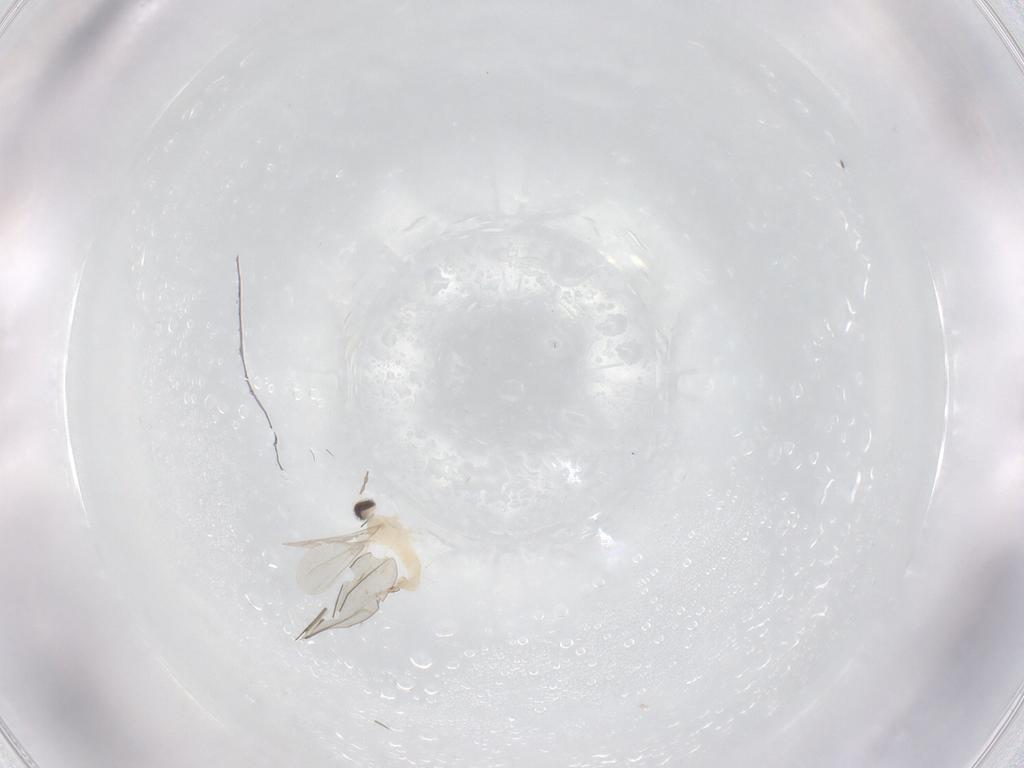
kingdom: Animalia
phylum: Arthropoda
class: Insecta
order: Diptera
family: Cecidomyiidae
